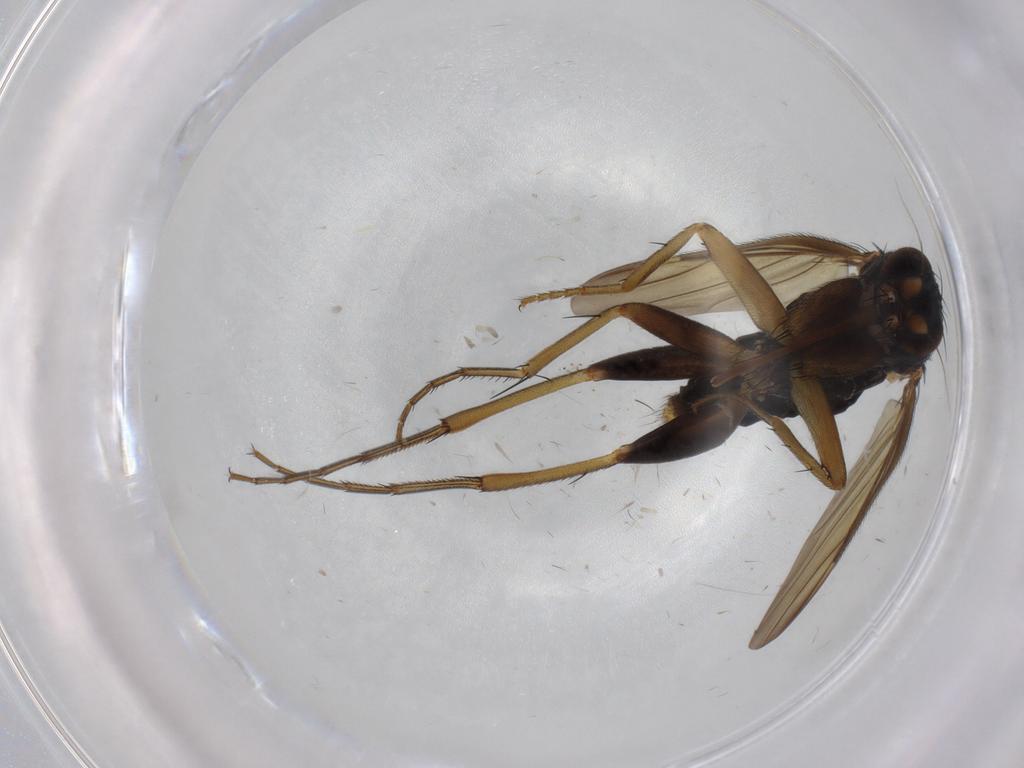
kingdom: Animalia
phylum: Arthropoda
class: Insecta
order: Diptera
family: Phoridae
